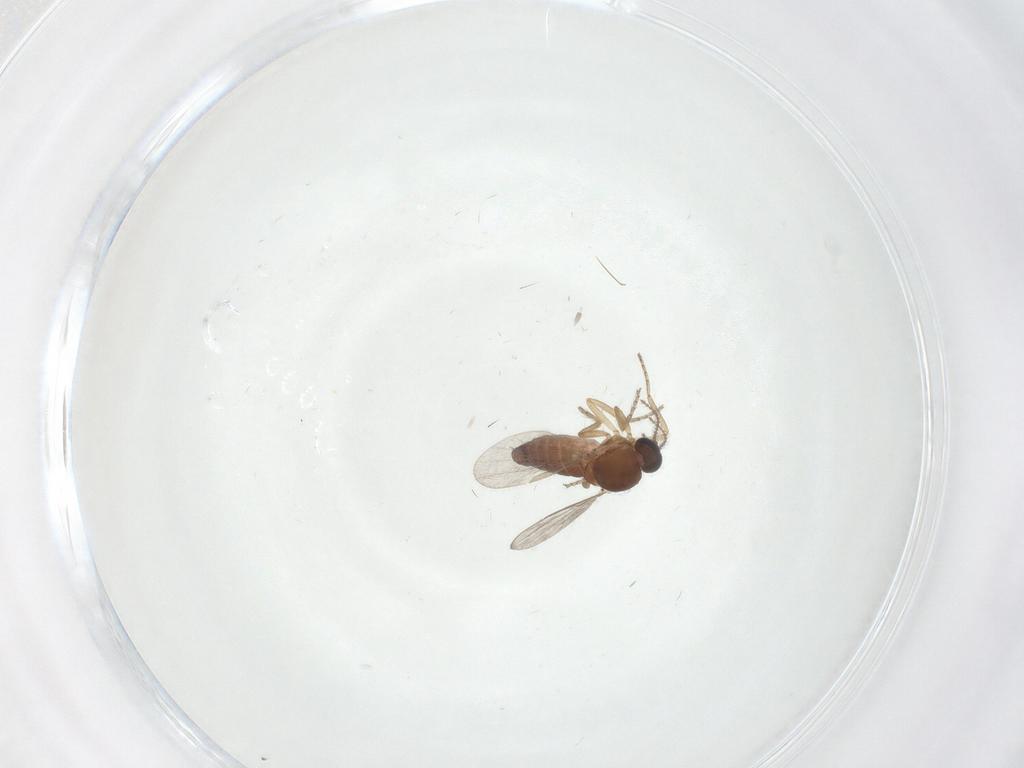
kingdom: Animalia
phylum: Arthropoda
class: Insecta
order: Diptera
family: Ceratopogonidae
